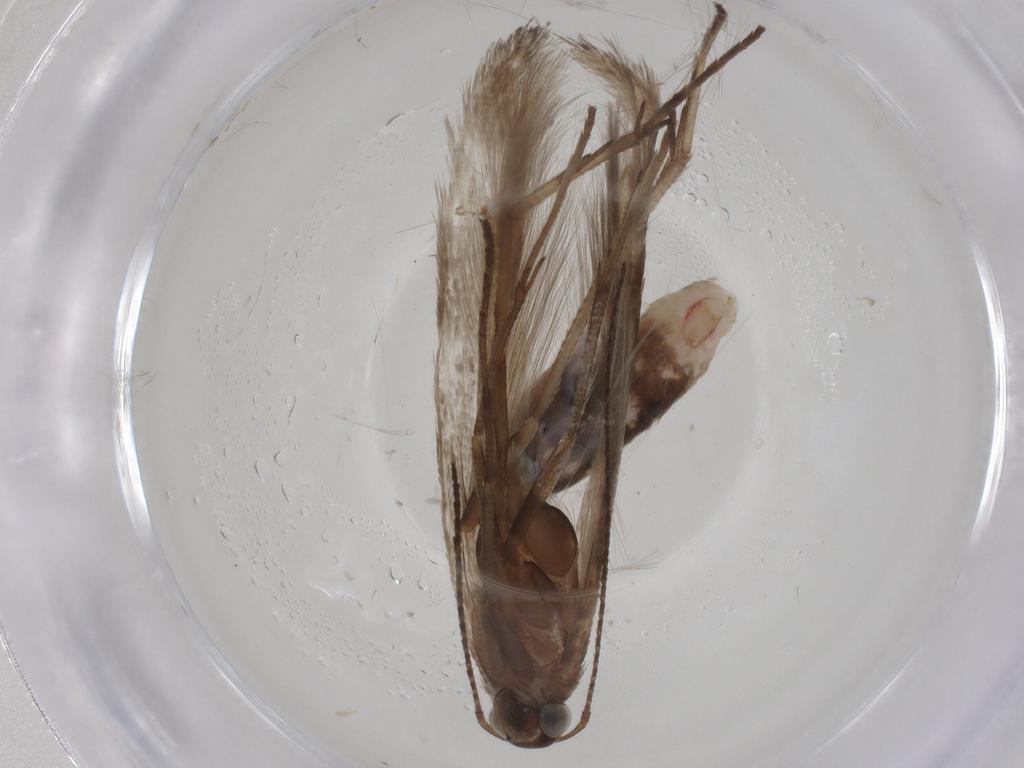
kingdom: Animalia
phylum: Arthropoda
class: Insecta
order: Lepidoptera
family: Gelechiidae
